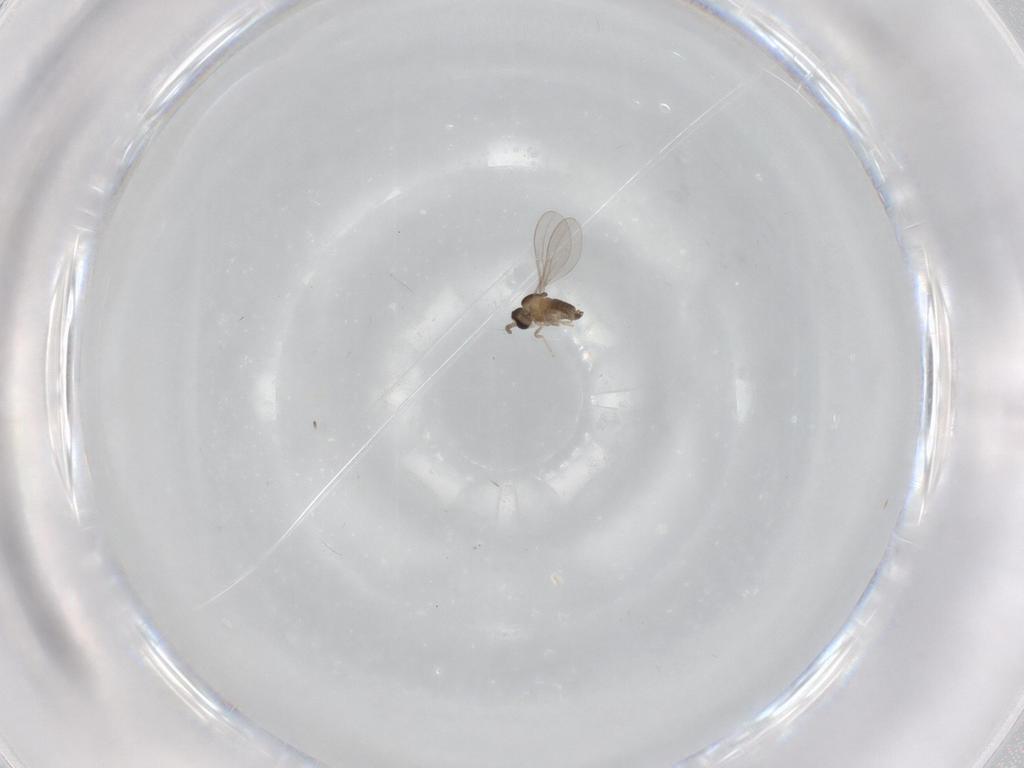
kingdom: Animalia
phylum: Arthropoda
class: Insecta
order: Diptera
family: Cecidomyiidae
